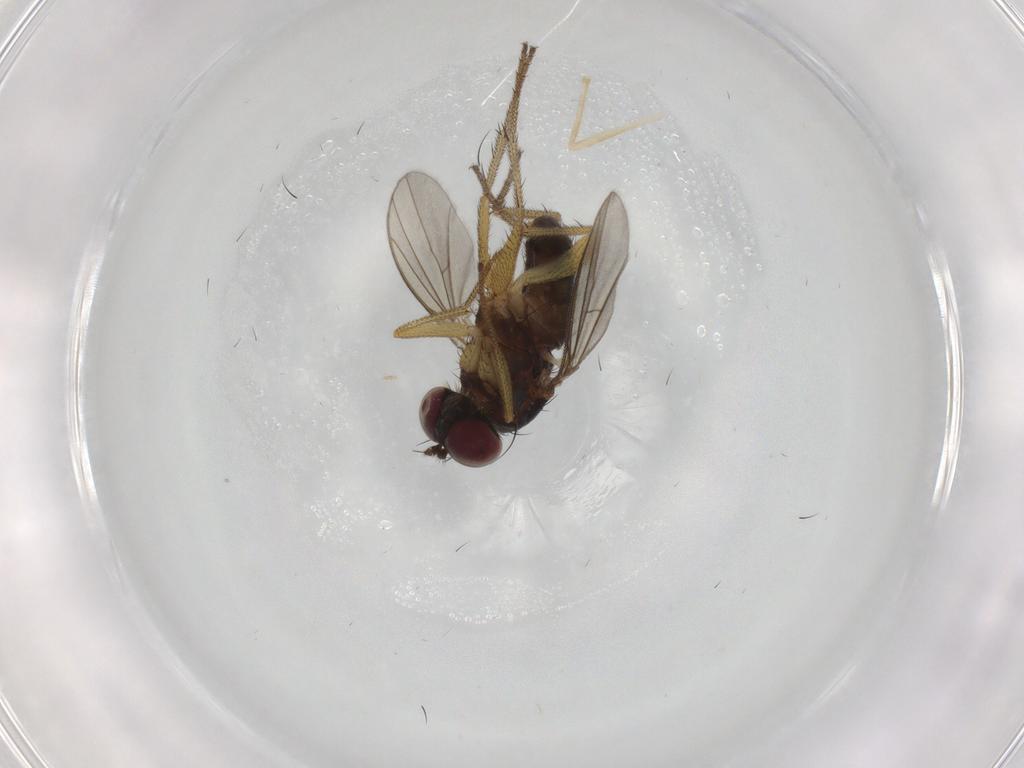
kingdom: Animalia
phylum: Arthropoda
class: Insecta
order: Diptera
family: Dolichopodidae
